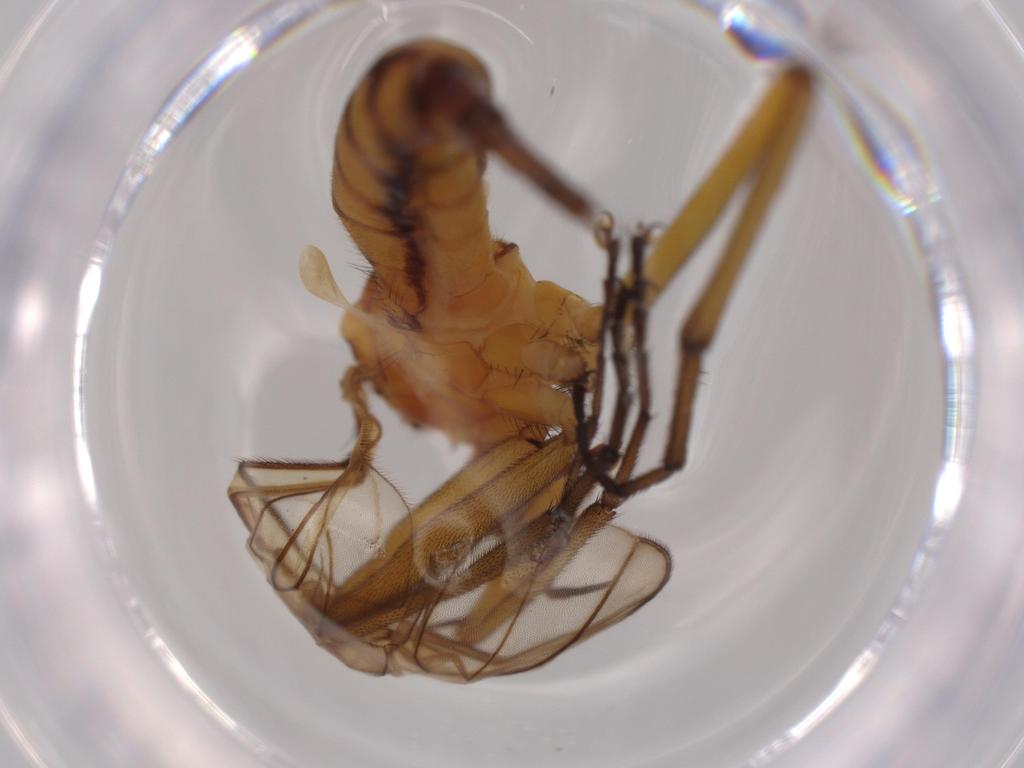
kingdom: Animalia
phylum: Arthropoda
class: Insecta
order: Diptera
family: Empididae
